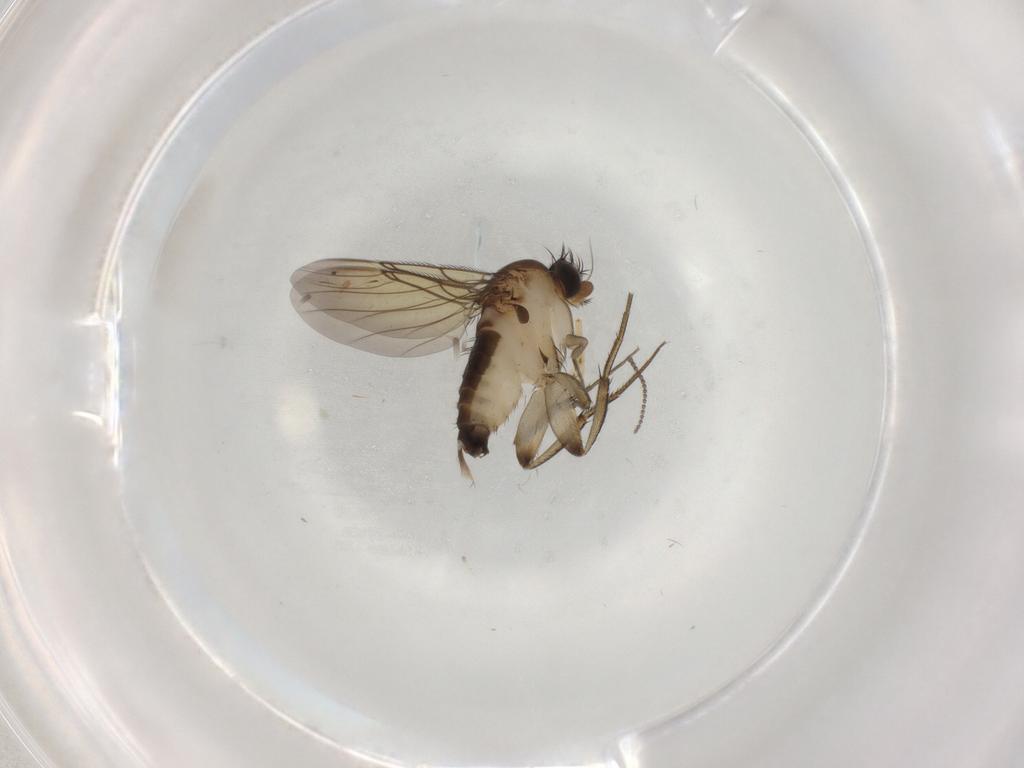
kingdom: Animalia
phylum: Arthropoda
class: Insecta
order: Diptera
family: Phoridae
